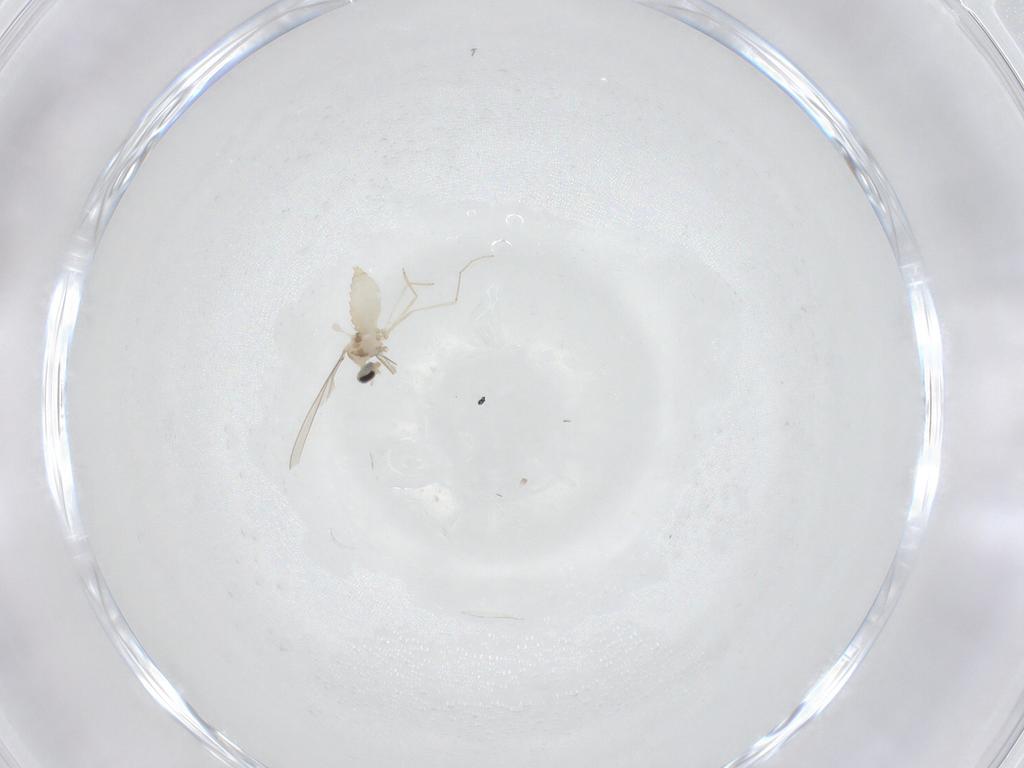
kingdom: Animalia
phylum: Arthropoda
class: Insecta
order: Diptera
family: Cecidomyiidae
